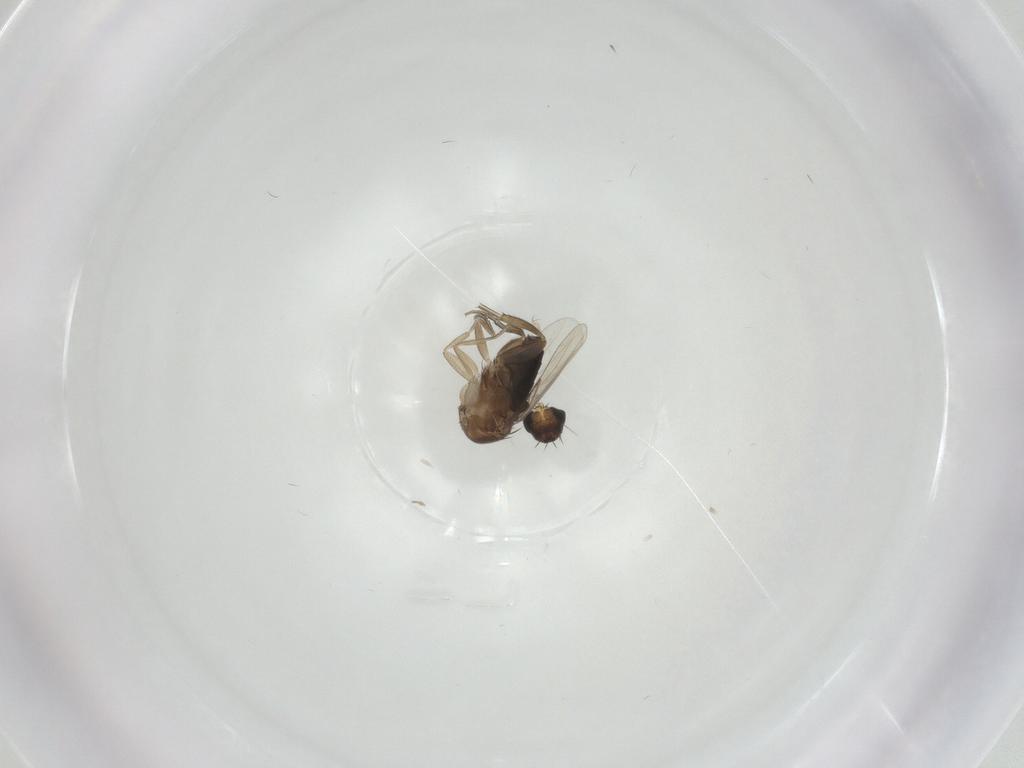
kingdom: Animalia
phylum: Arthropoda
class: Insecta
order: Diptera
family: Phoridae
